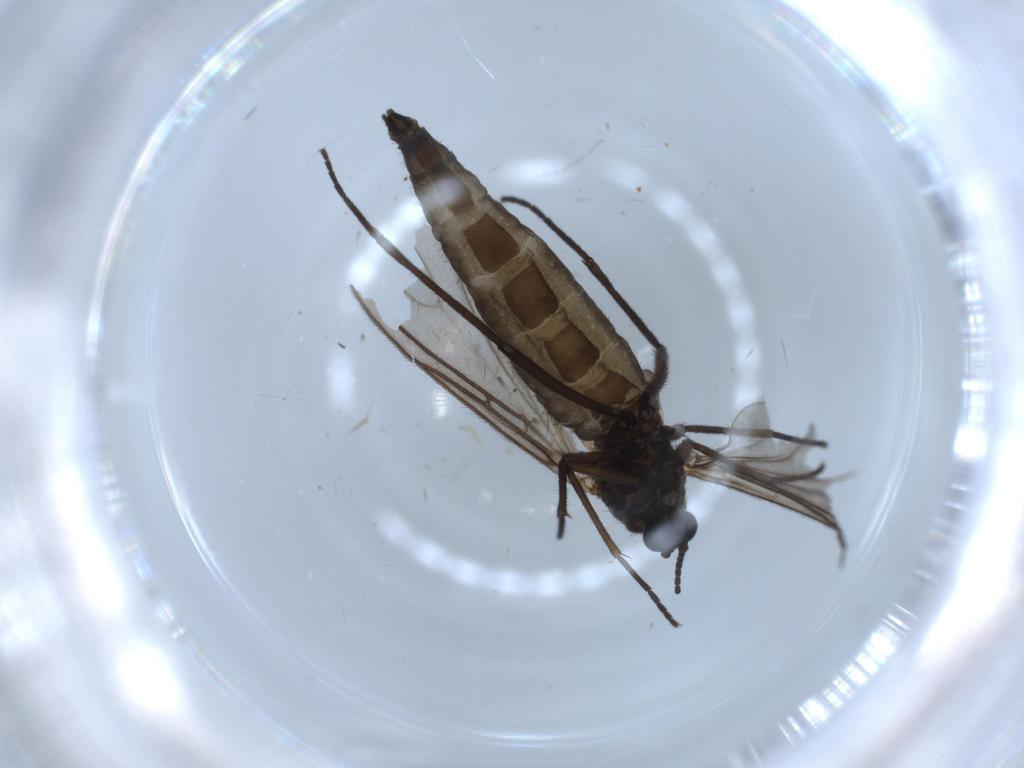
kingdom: Animalia
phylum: Arthropoda
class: Insecta
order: Diptera
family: Sciaridae
